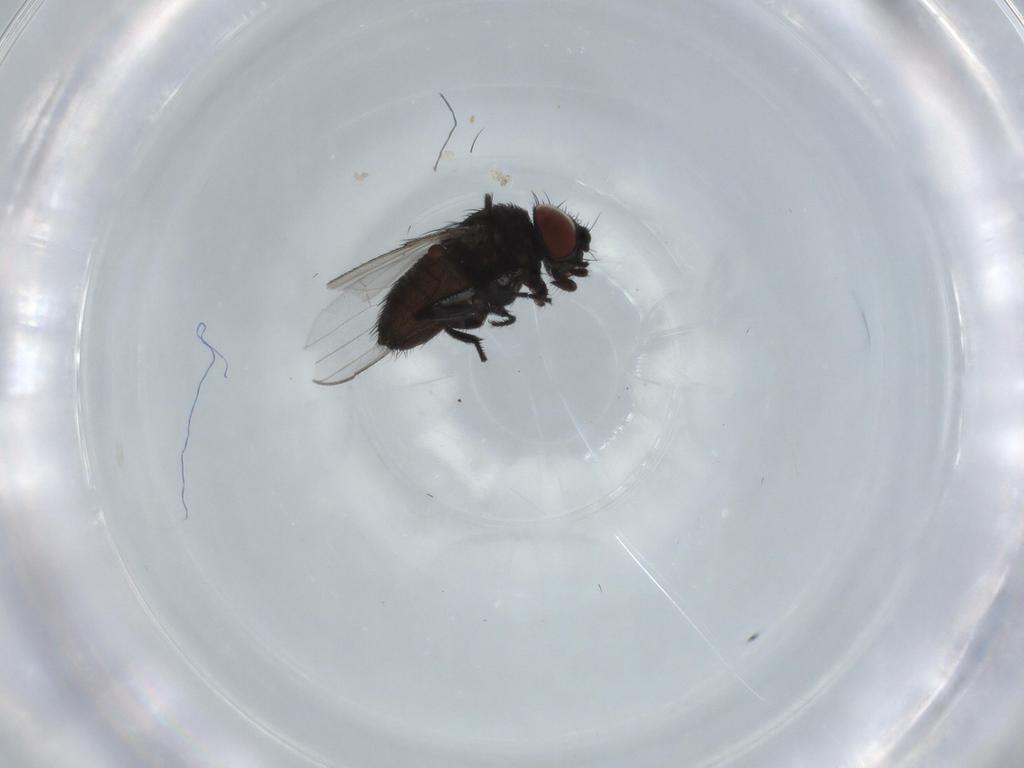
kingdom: Animalia
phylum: Arthropoda
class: Insecta
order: Diptera
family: Milichiidae
